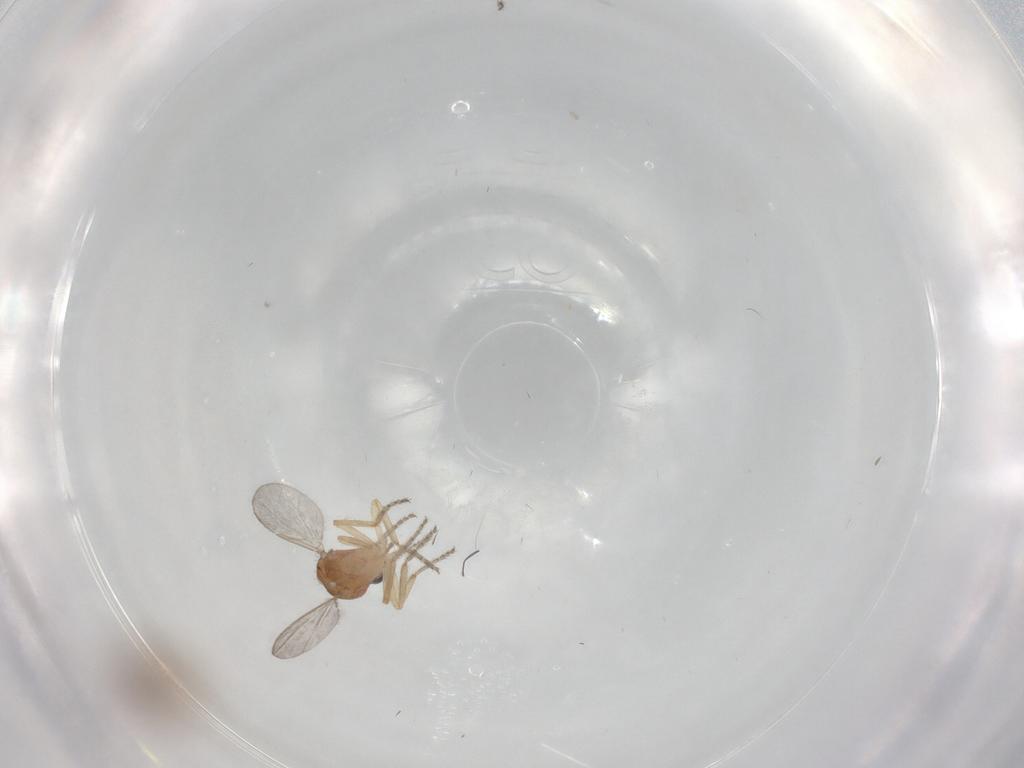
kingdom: Animalia
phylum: Arthropoda
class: Insecta
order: Diptera
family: Ceratopogonidae
